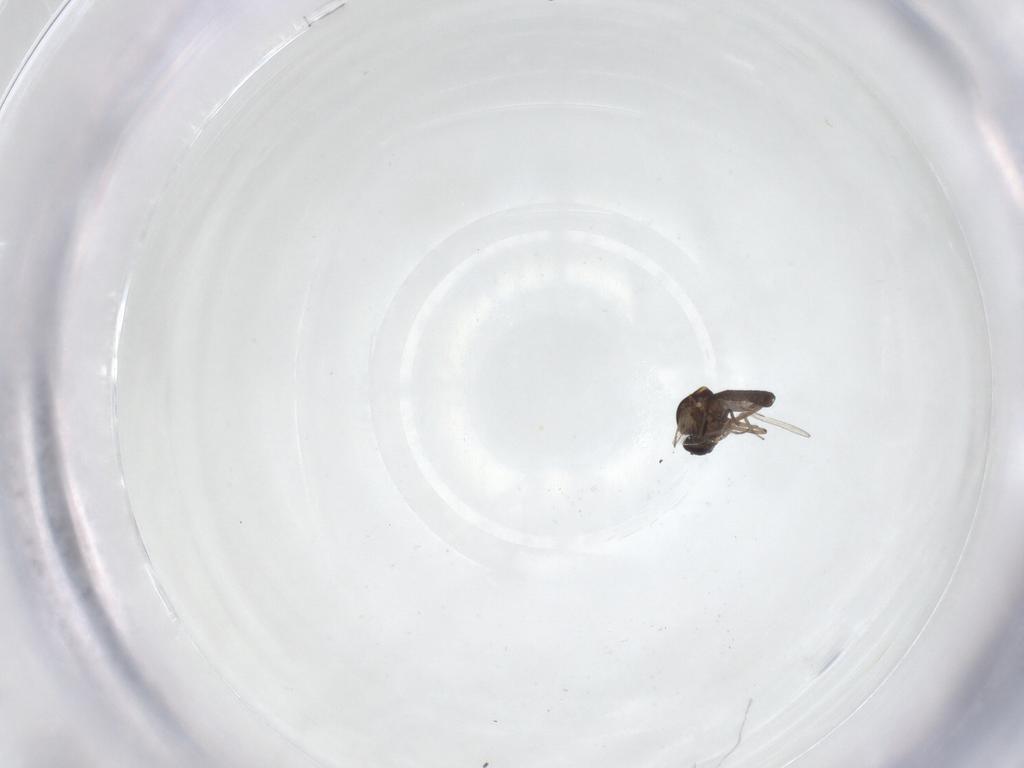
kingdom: Animalia
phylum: Arthropoda
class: Insecta
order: Diptera
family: Ceratopogonidae
